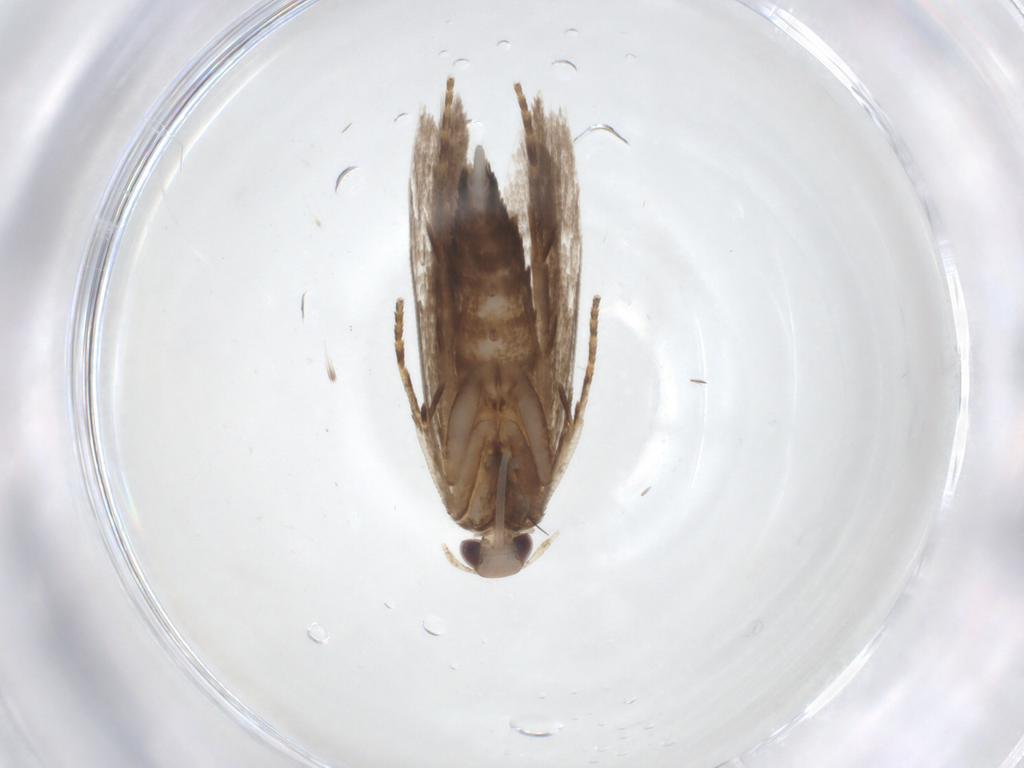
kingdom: Animalia
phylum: Arthropoda
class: Insecta
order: Lepidoptera
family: Gelechiidae
